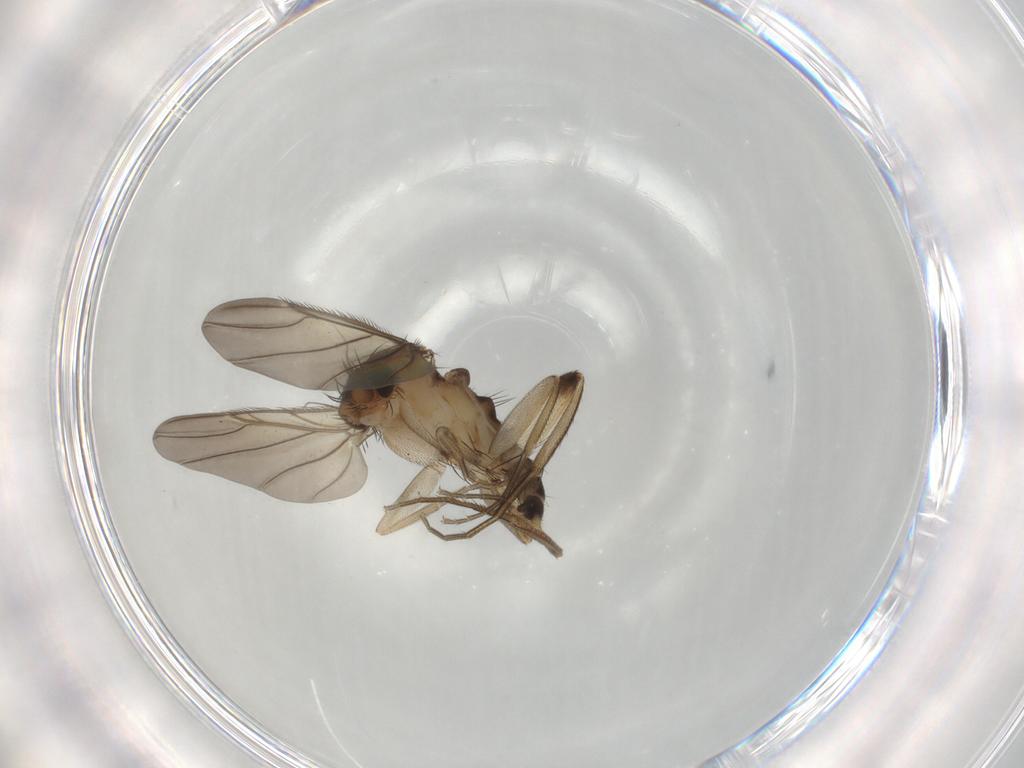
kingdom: Animalia
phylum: Arthropoda
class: Insecta
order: Diptera
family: Phoridae
